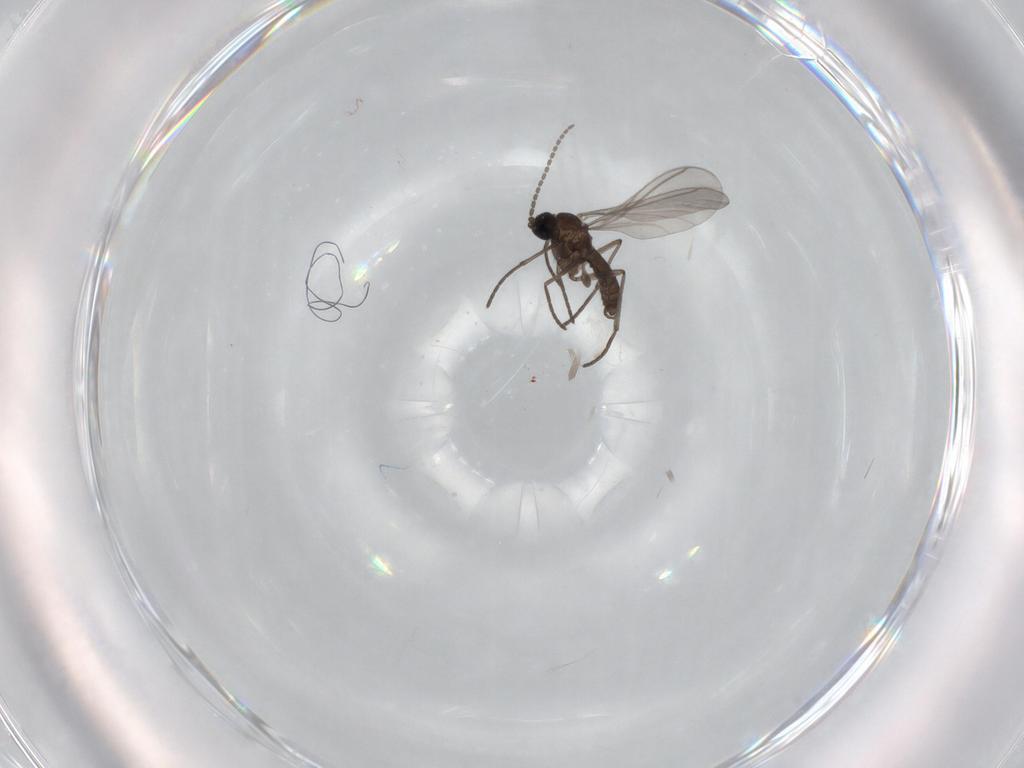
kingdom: Animalia
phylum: Arthropoda
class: Insecta
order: Diptera
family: Sciaridae
